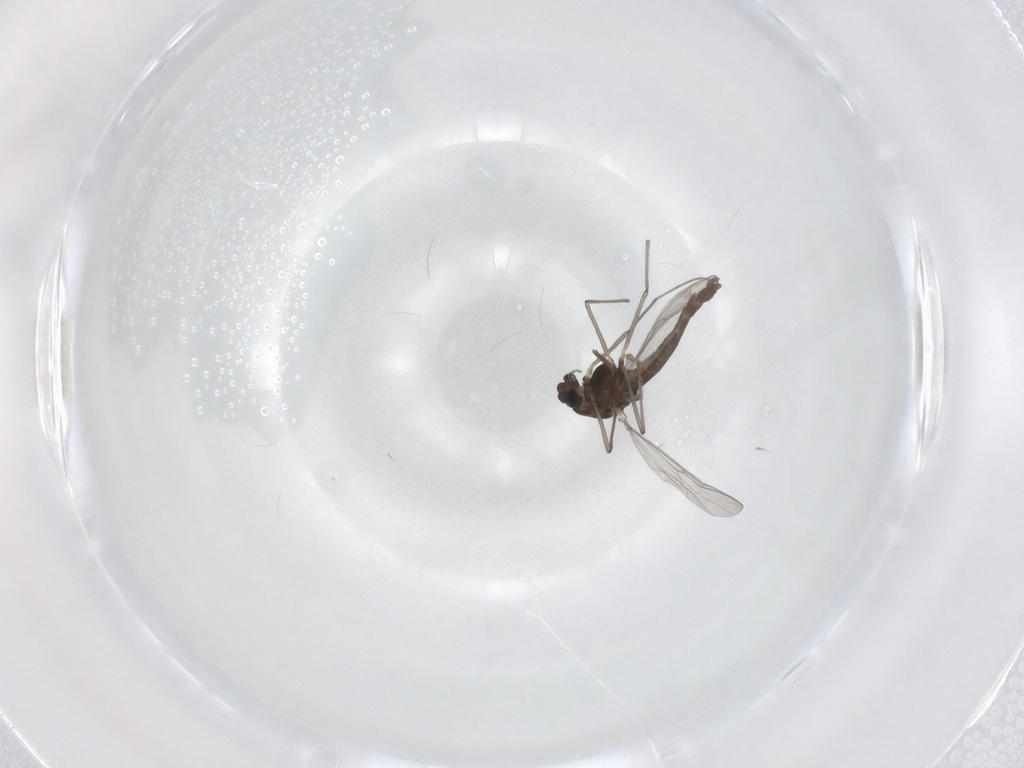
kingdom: Animalia
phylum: Arthropoda
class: Insecta
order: Diptera
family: Chironomidae
